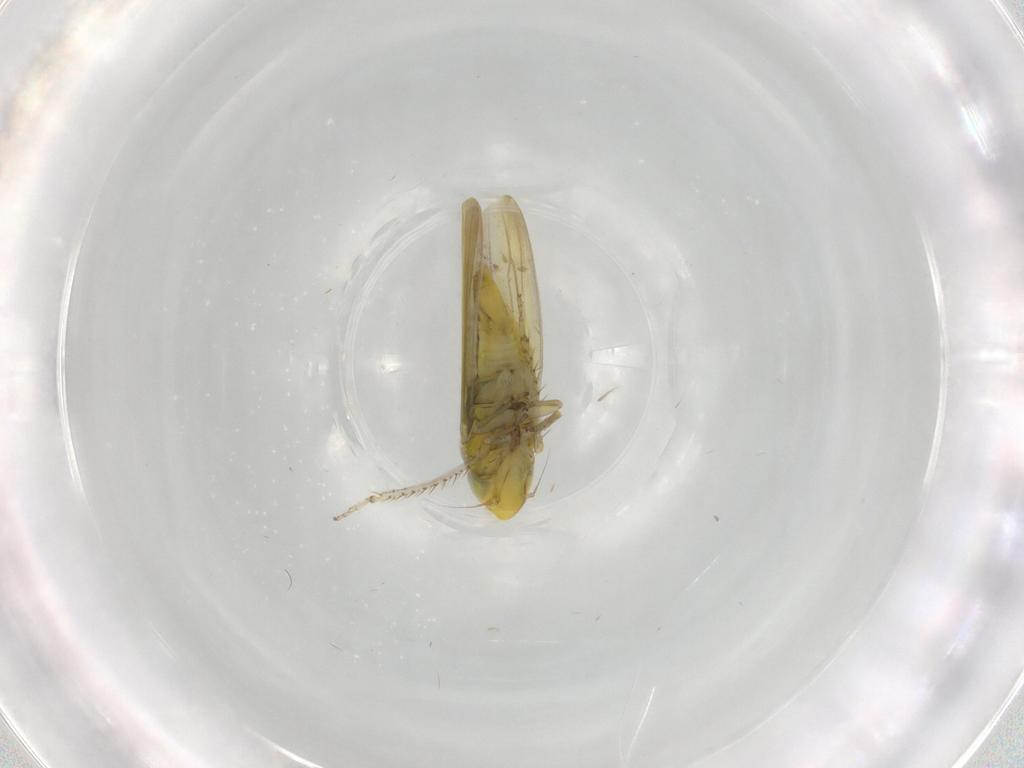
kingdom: Animalia
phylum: Arthropoda
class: Insecta
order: Hemiptera
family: Cicadellidae
